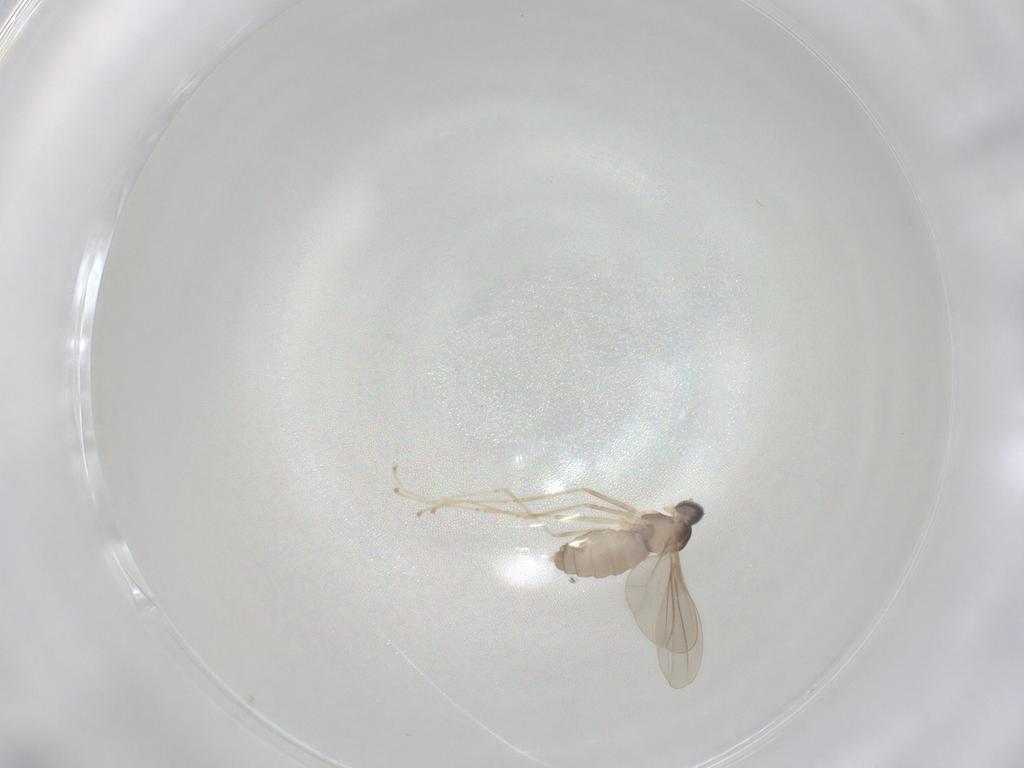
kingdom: Animalia
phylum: Arthropoda
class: Insecta
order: Diptera
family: Cecidomyiidae
